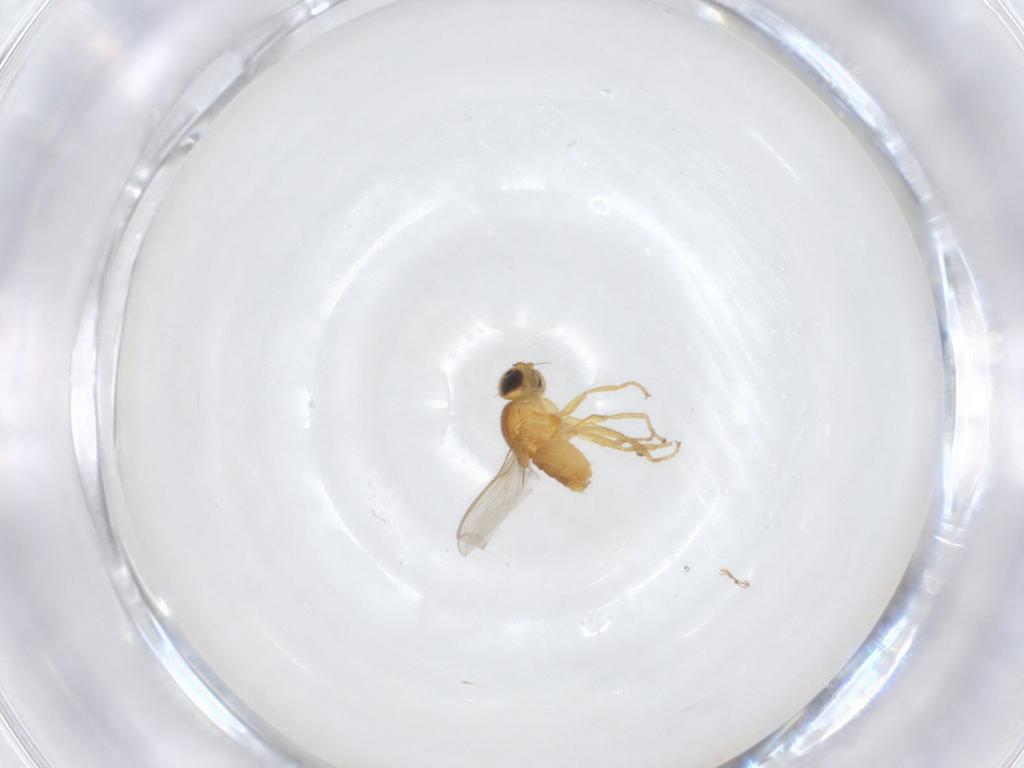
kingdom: Animalia
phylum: Arthropoda
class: Insecta
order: Diptera
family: Chloropidae
